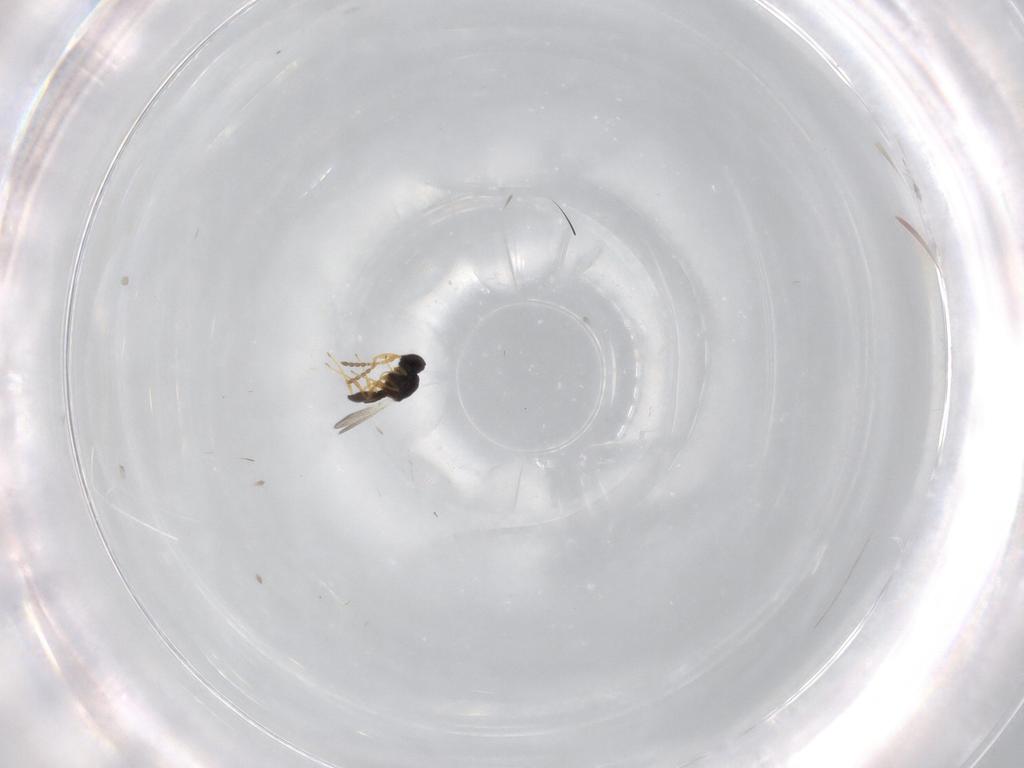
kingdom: Animalia
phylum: Arthropoda
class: Insecta
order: Hymenoptera
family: Platygastridae
